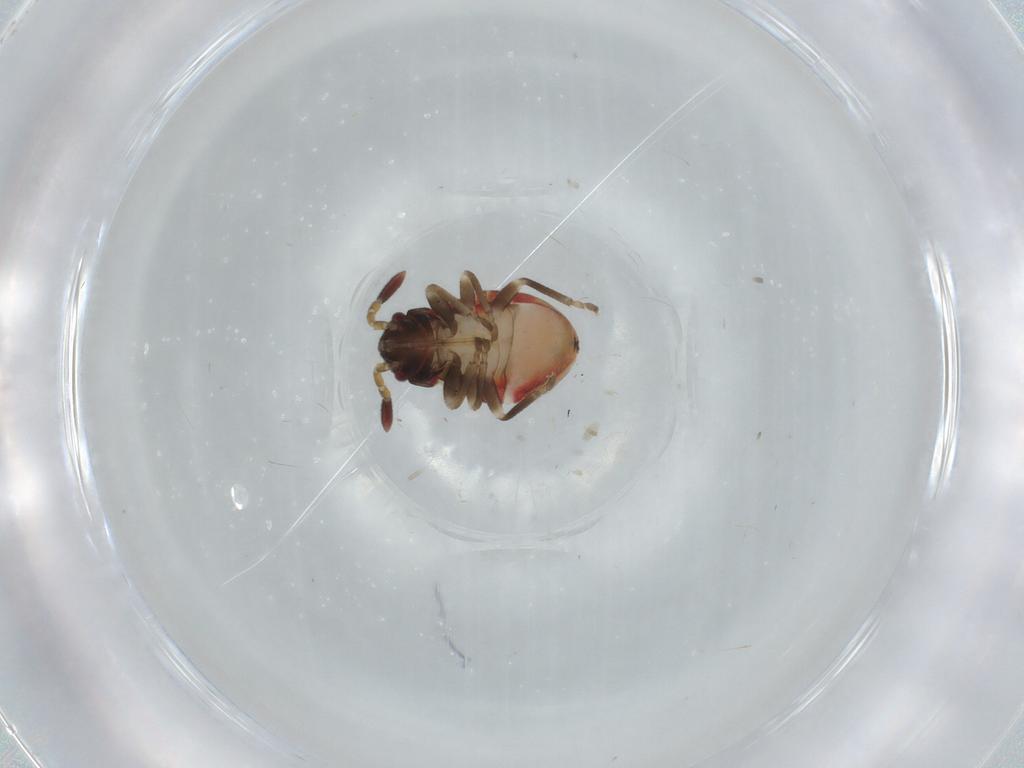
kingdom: Animalia
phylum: Arthropoda
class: Insecta
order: Hemiptera
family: Rhyparochromidae
